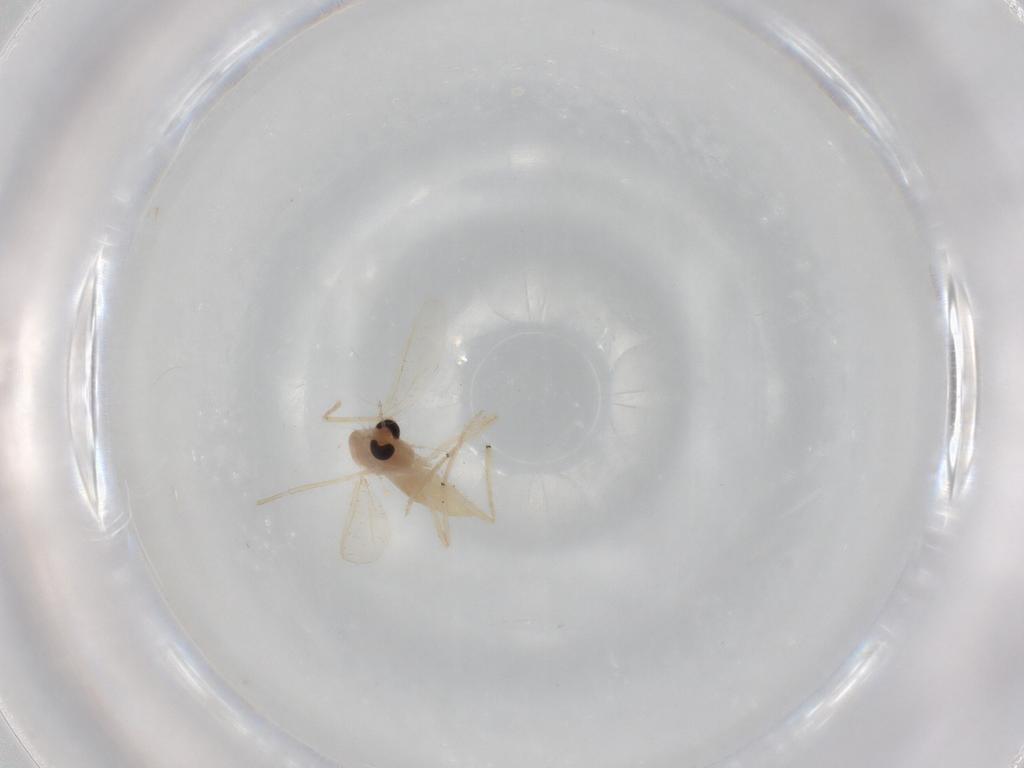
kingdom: Animalia
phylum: Arthropoda
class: Insecta
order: Diptera
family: Chironomidae
